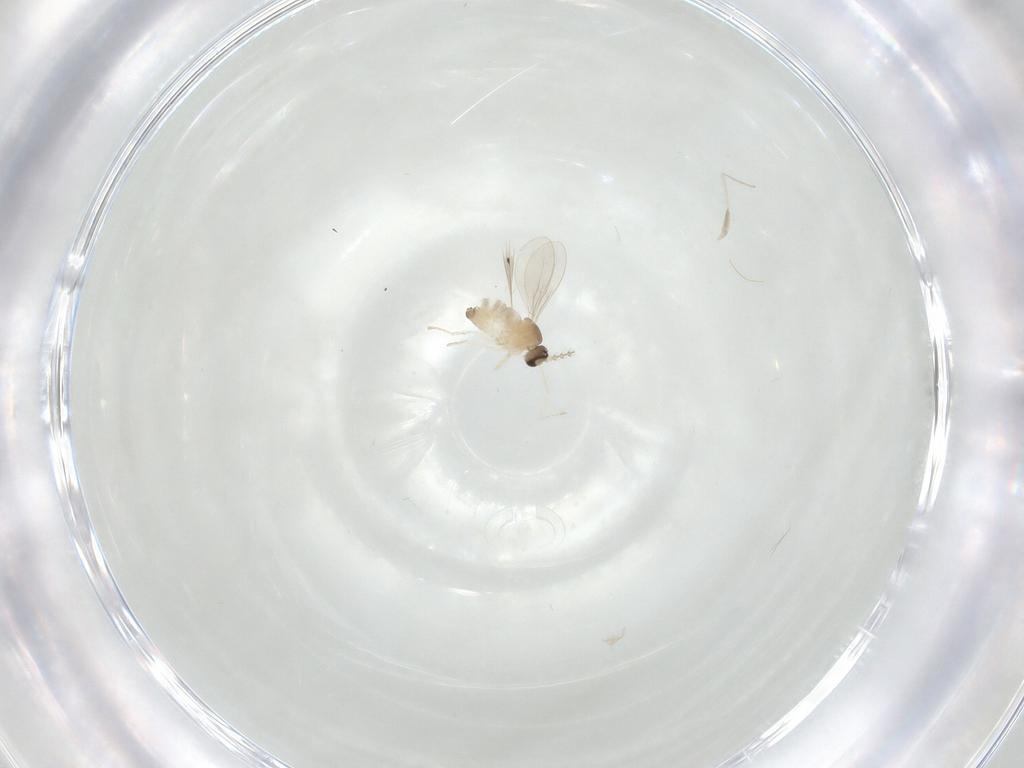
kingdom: Animalia
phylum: Arthropoda
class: Insecta
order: Diptera
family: Cecidomyiidae
